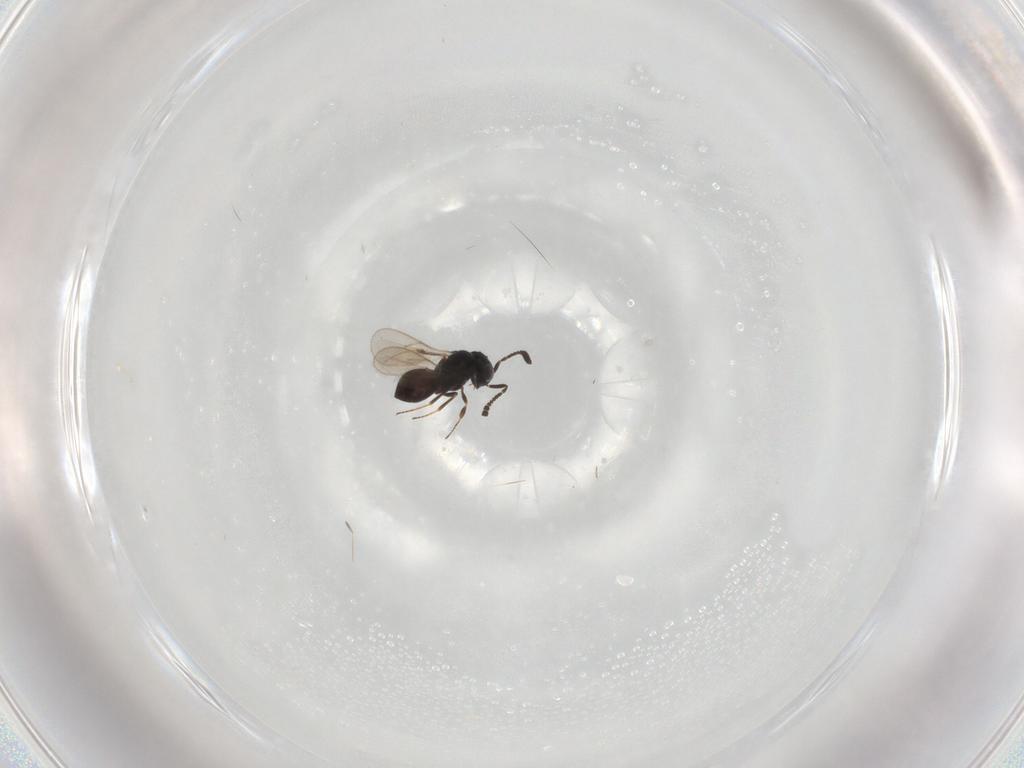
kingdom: Animalia
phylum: Arthropoda
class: Insecta
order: Hymenoptera
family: Scelionidae
